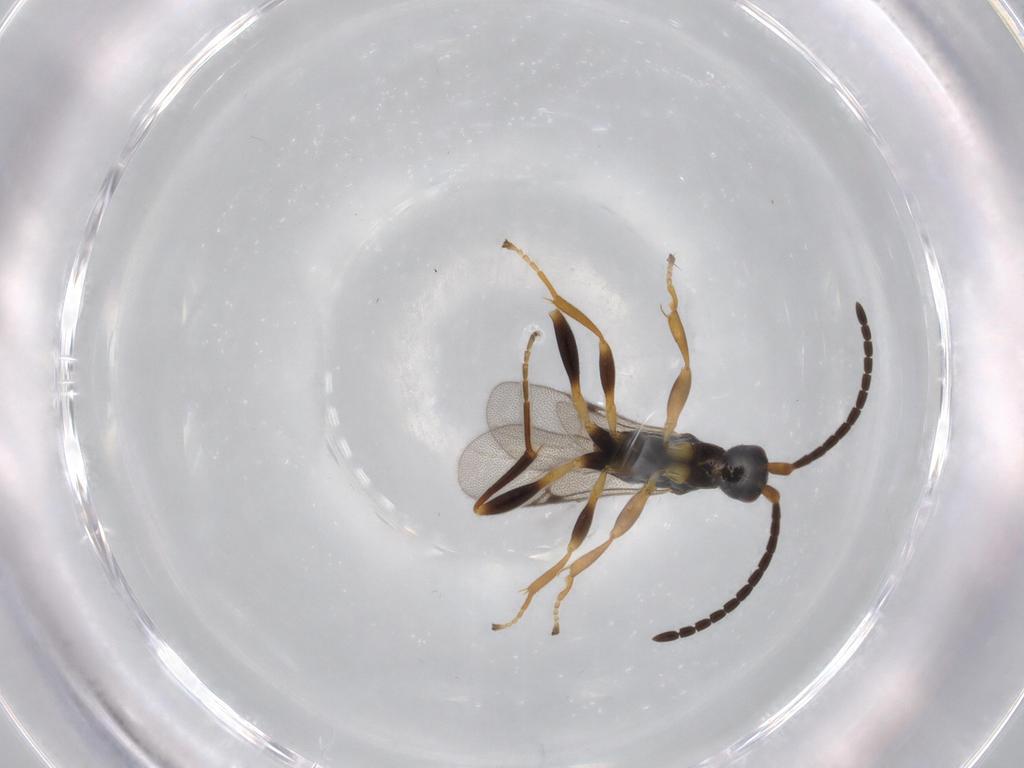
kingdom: Animalia
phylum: Arthropoda
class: Insecta
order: Hymenoptera
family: Proctotrupidae
